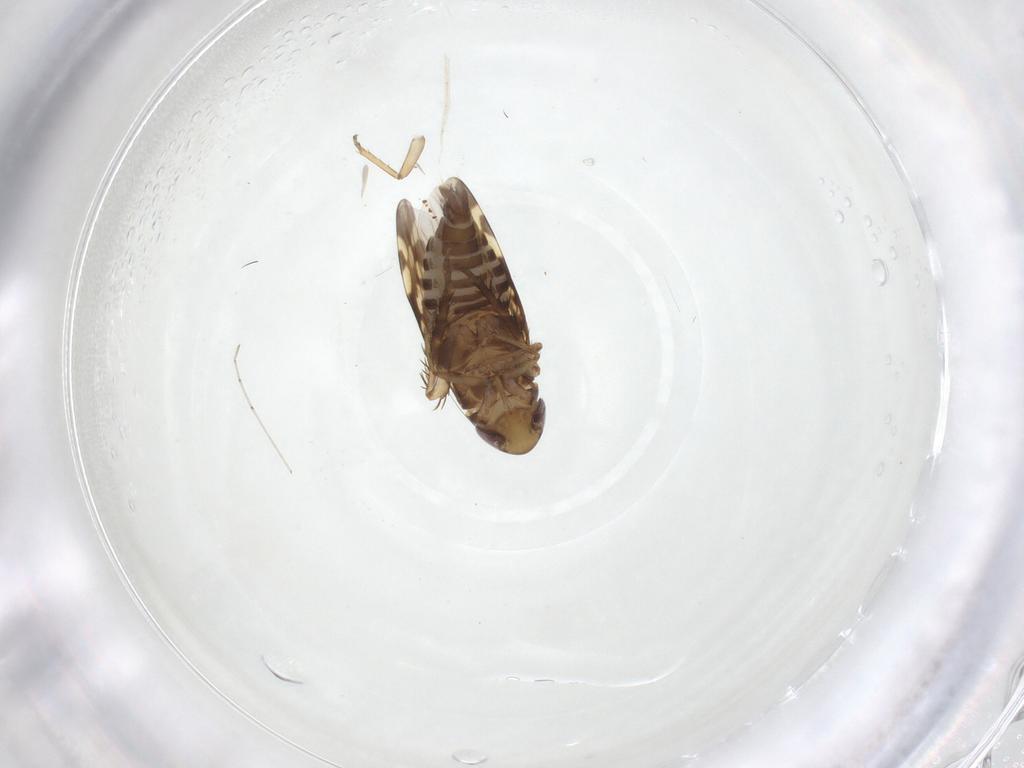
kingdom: Animalia
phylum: Arthropoda
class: Insecta
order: Hemiptera
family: Cicadellidae
